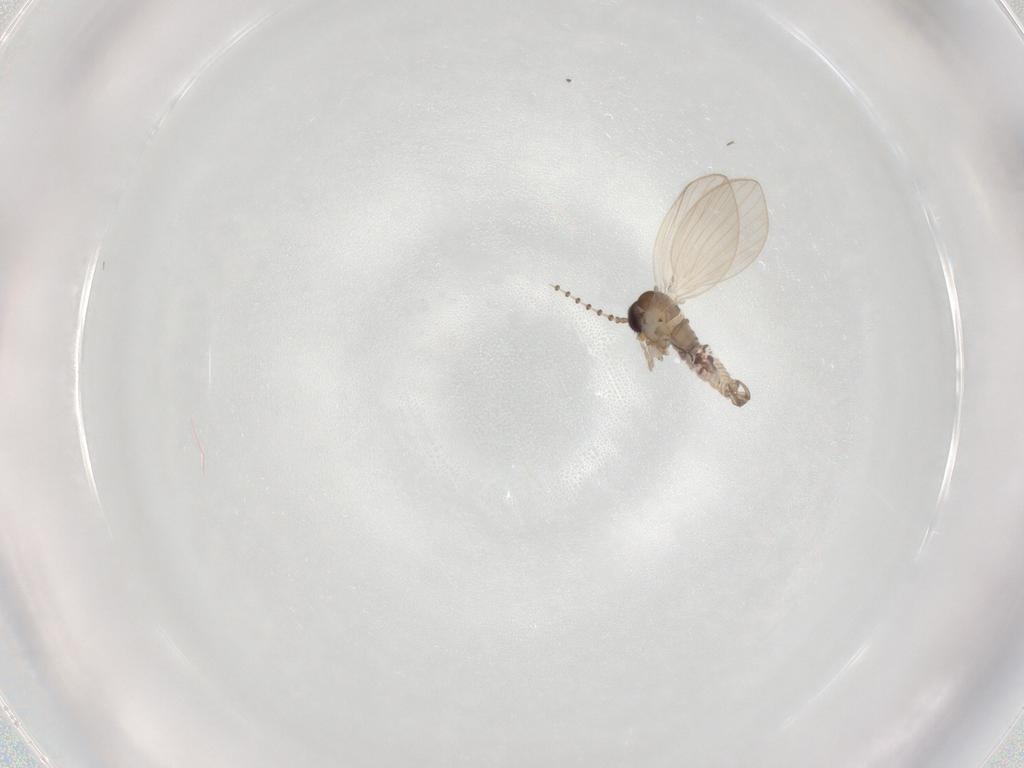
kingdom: Animalia
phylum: Arthropoda
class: Insecta
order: Diptera
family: Psychodidae
